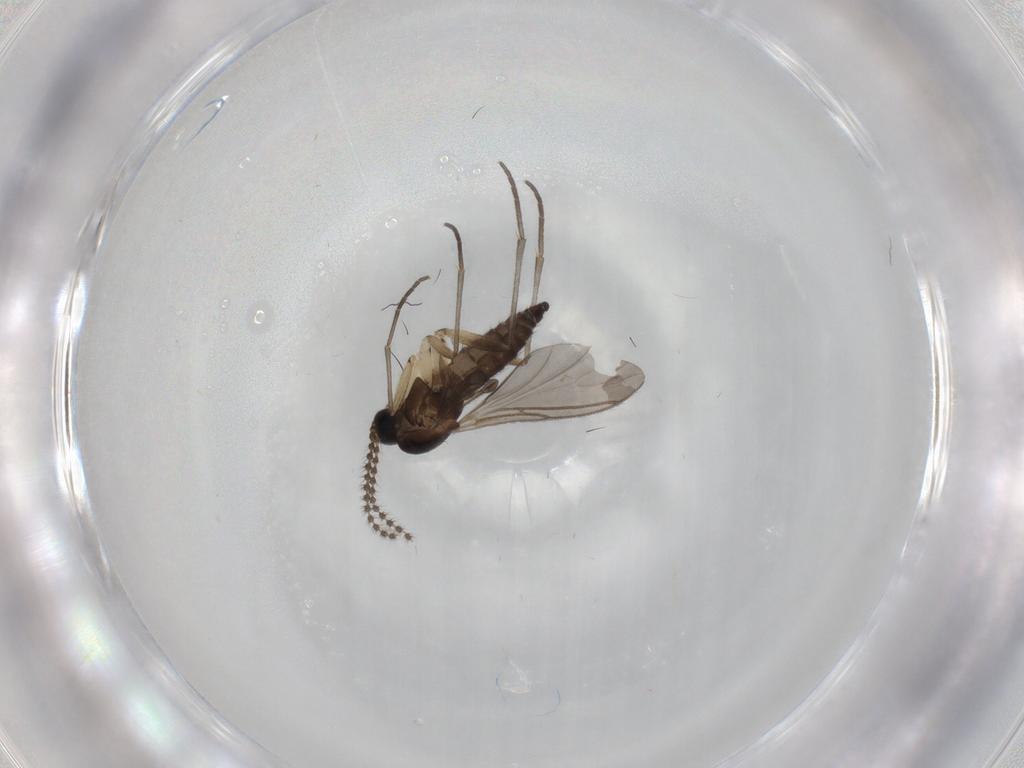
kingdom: Animalia
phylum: Arthropoda
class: Insecta
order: Diptera
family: Sciaridae
